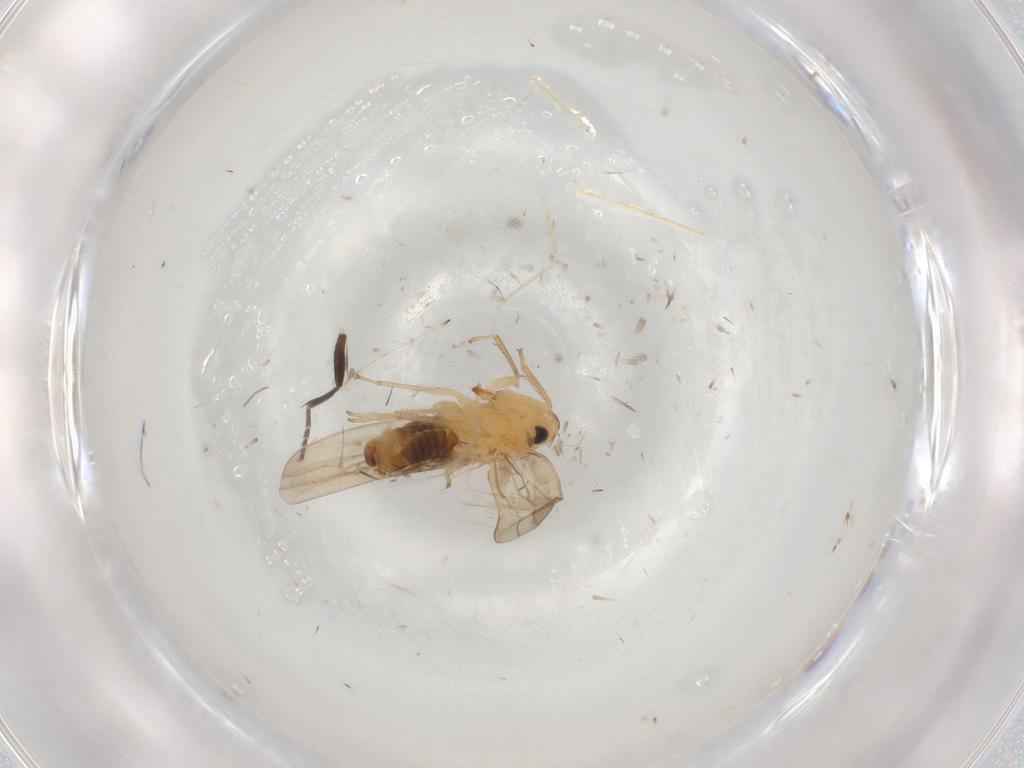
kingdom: Animalia
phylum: Arthropoda
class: Insecta
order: Hemiptera
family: Cicadellidae
